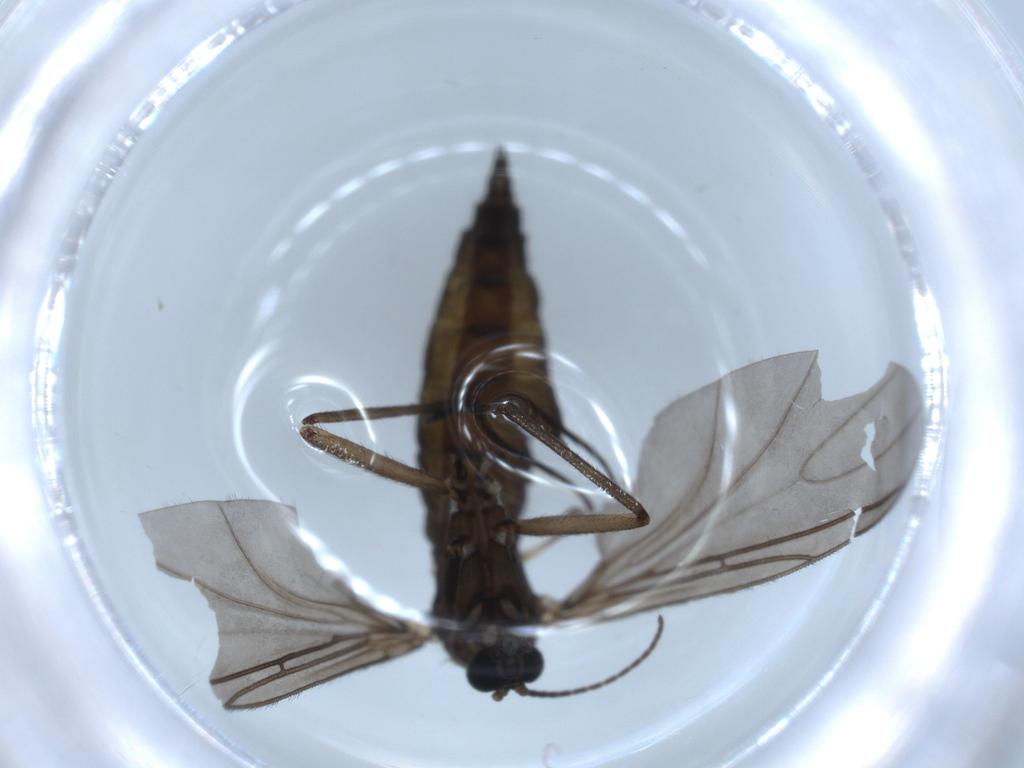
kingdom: Animalia
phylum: Arthropoda
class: Insecta
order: Diptera
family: Sciaridae
